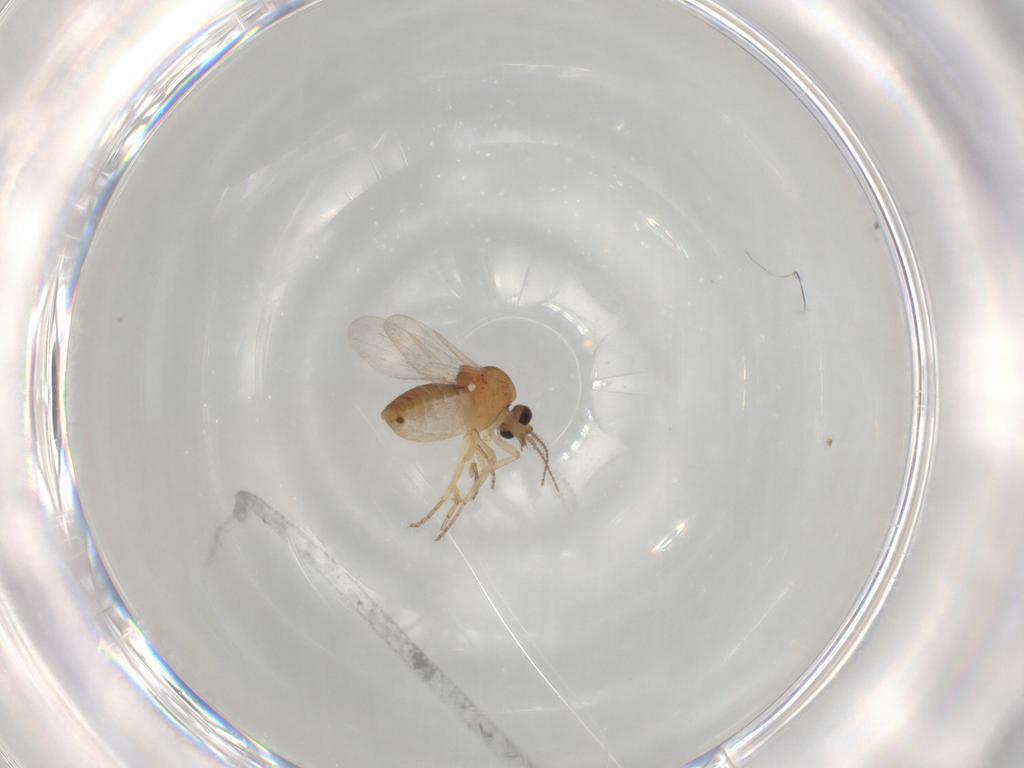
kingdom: Animalia
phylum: Arthropoda
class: Insecta
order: Diptera
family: Ceratopogonidae
